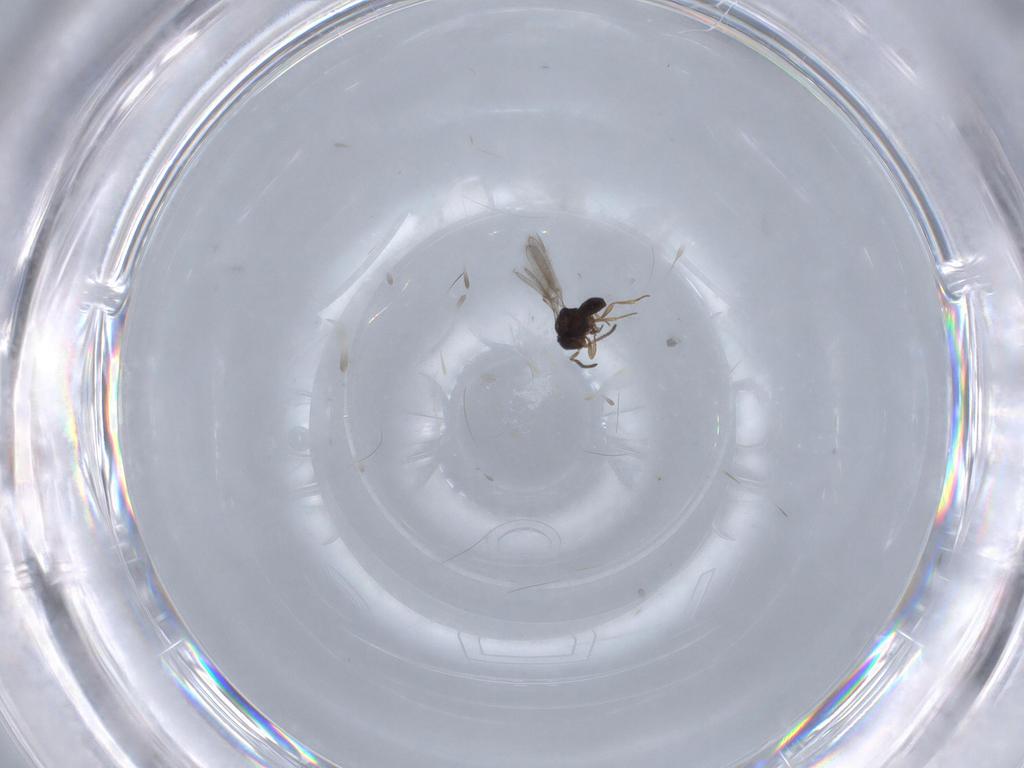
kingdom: Animalia
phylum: Arthropoda
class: Insecta
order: Hymenoptera
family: Scelionidae
